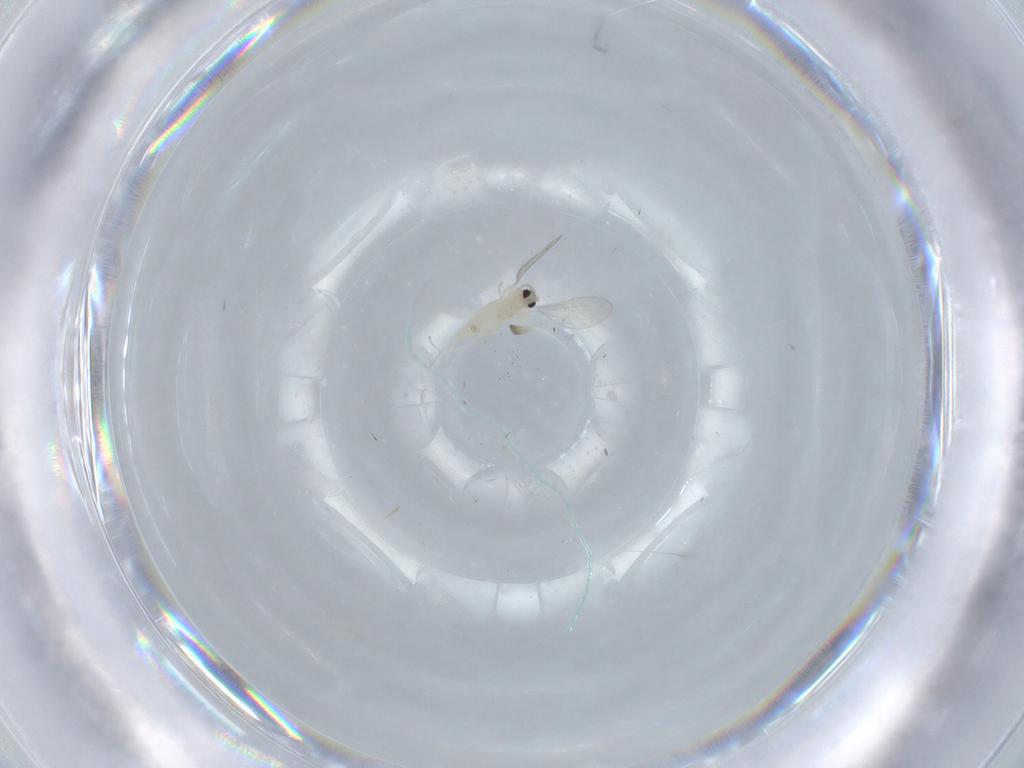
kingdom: Animalia
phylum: Arthropoda
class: Insecta
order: Diptera
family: Cecidomyiidae
